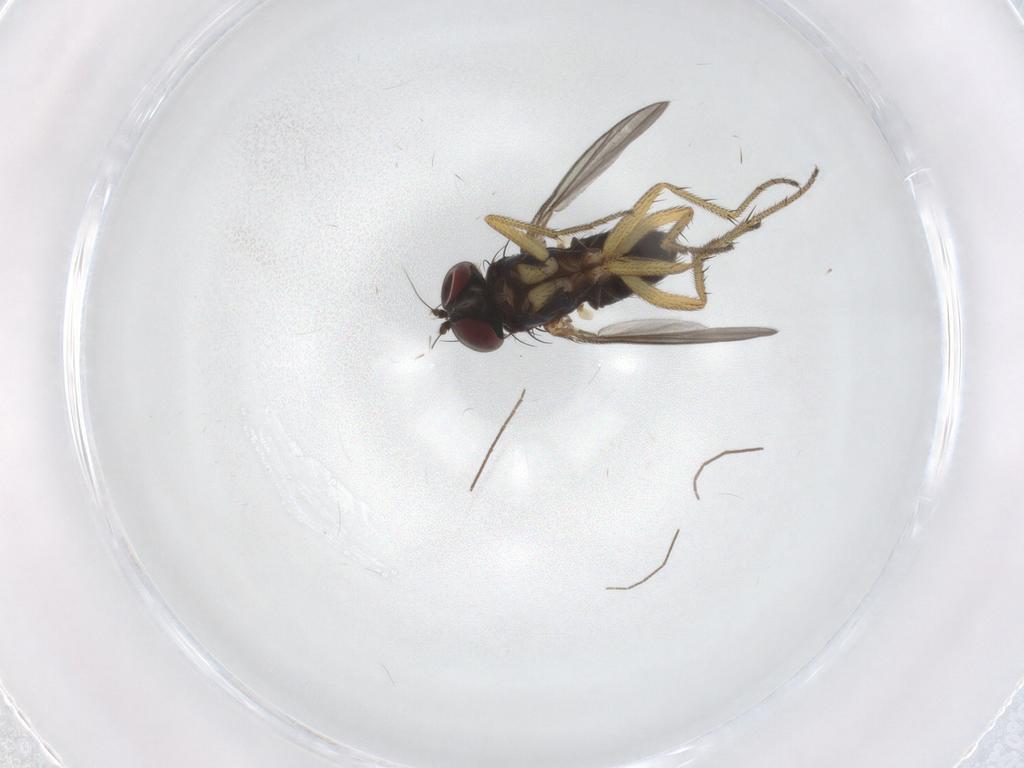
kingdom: Animalia
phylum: Arthropoda
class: Insecta
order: Diptera
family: Chironomidae
